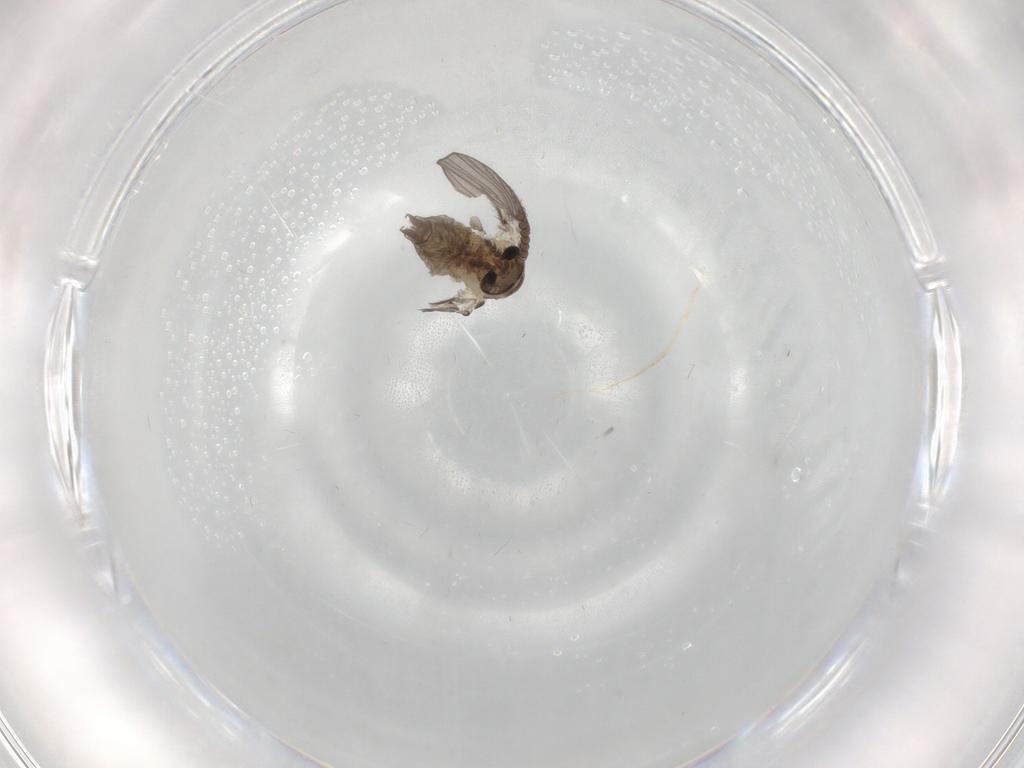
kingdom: Animalia
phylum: Arthropoda
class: Insecta
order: Diptera
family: Psychodidae
